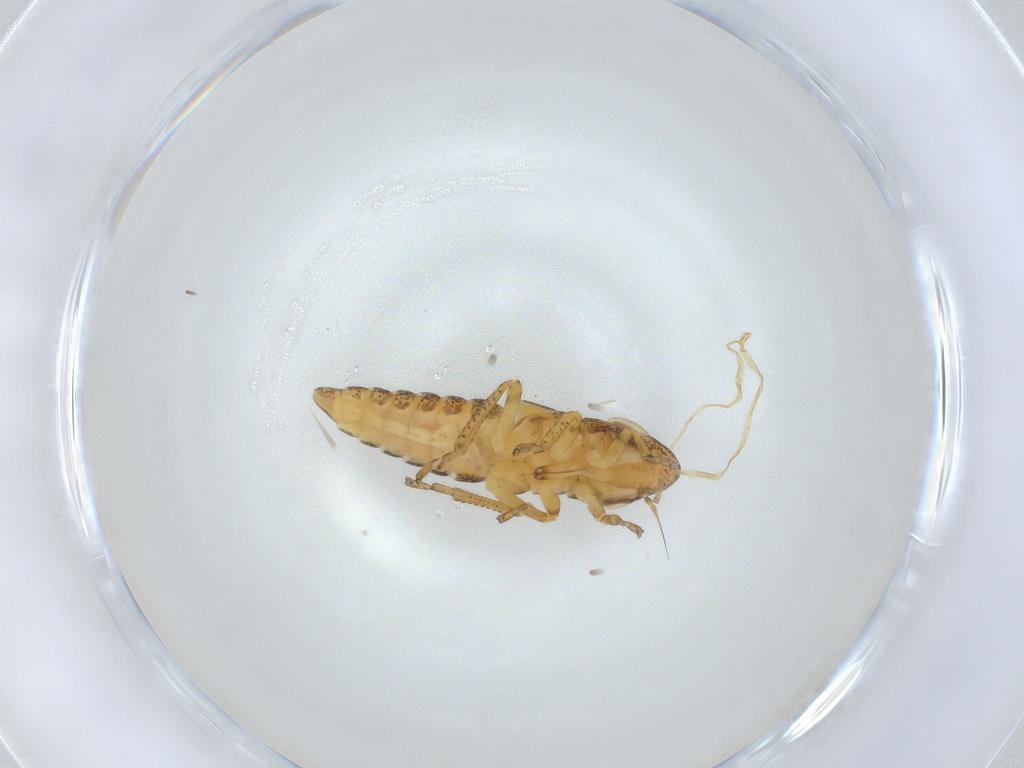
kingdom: Animalia
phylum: Arthropoda
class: Insecta
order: Hemiptera
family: Cicadellidae
